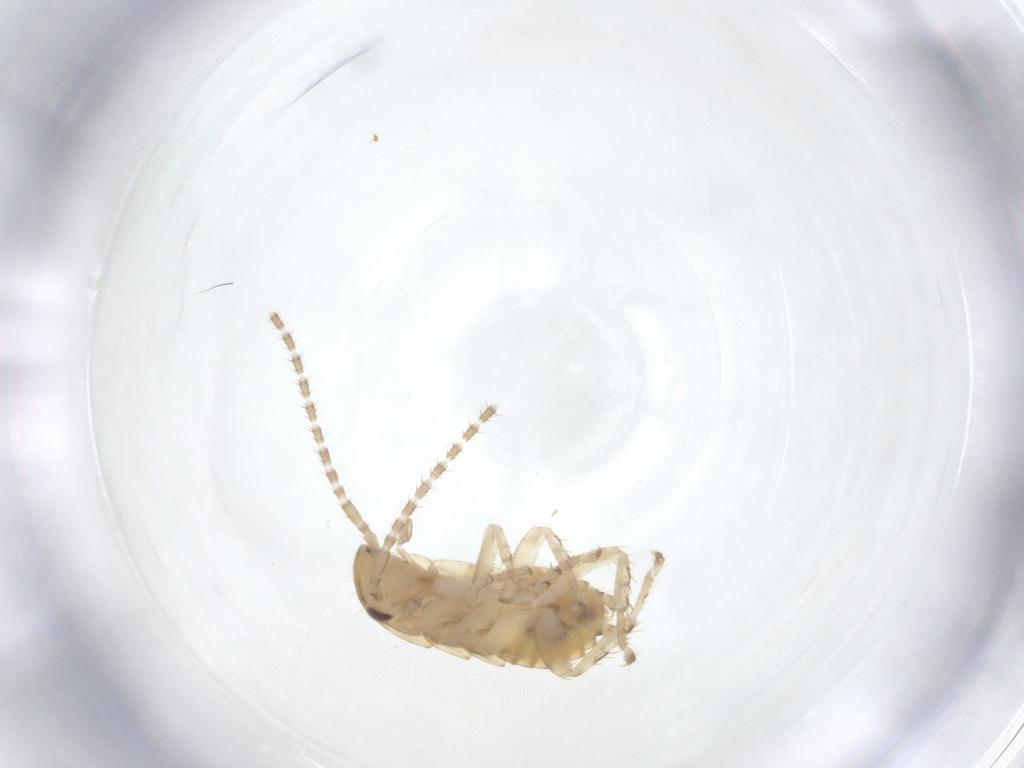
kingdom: Animalia
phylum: Arthropoda
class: Insecta
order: Blattodea
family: Ectobiidae
